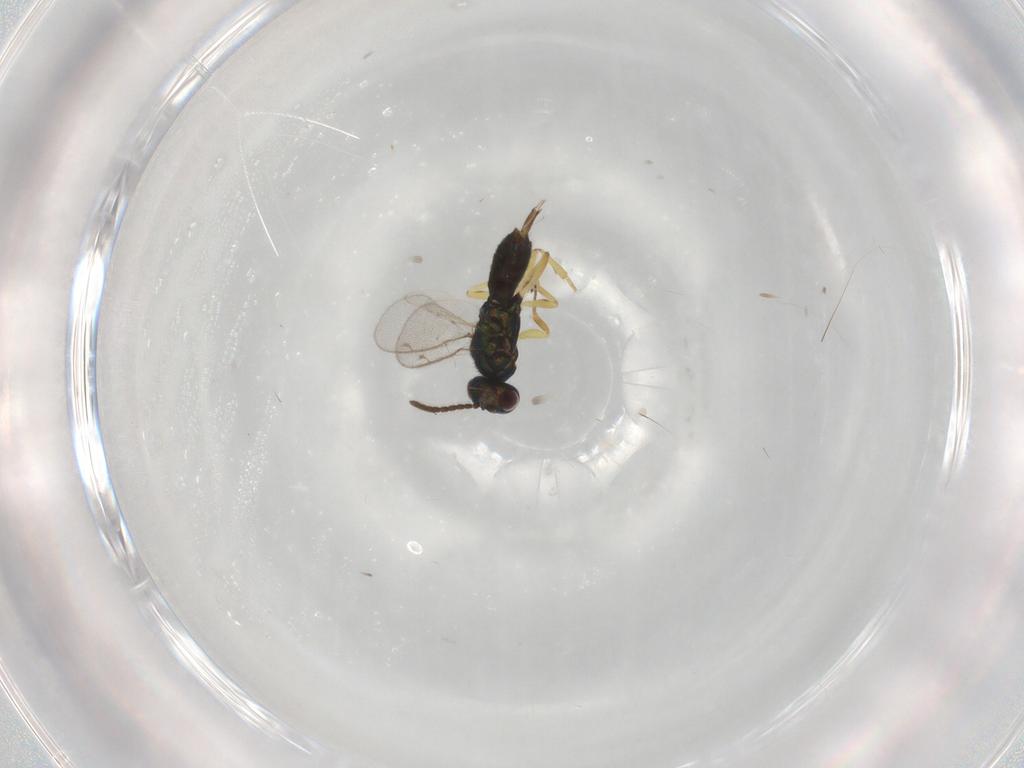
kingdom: Animalia
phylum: Arthropoda
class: Insecta
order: Hymenoptera
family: Eupelmidae
